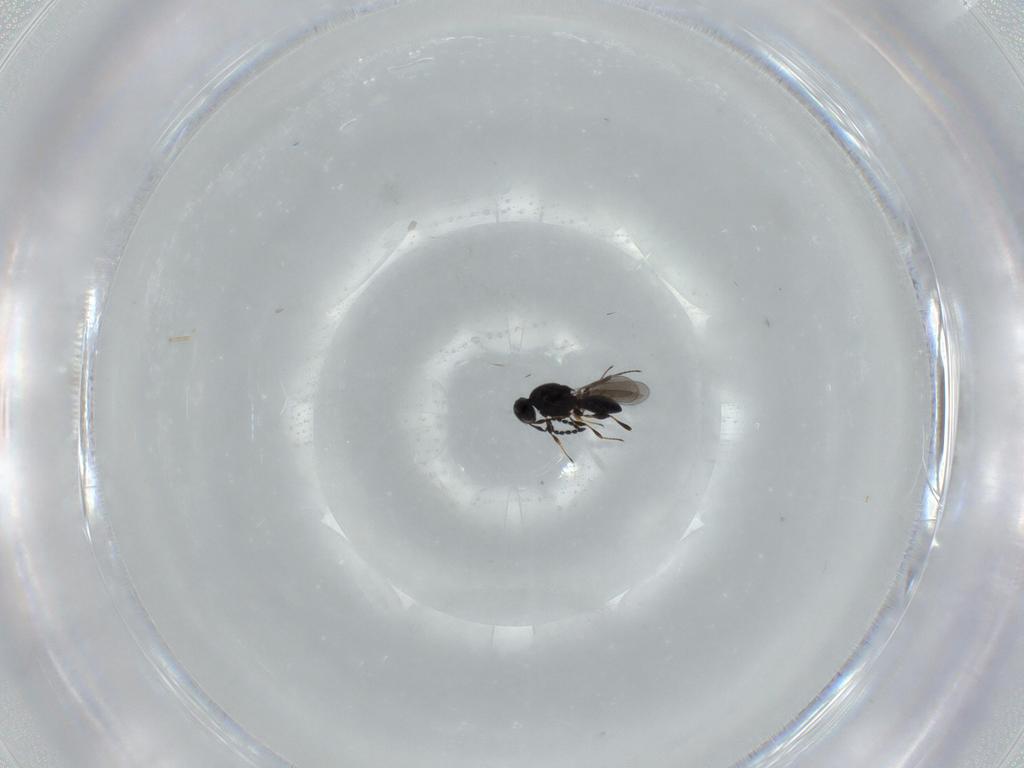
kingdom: Animalia
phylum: Arthropoda
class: Insecta
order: Hymenoptera
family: Platygastridae
